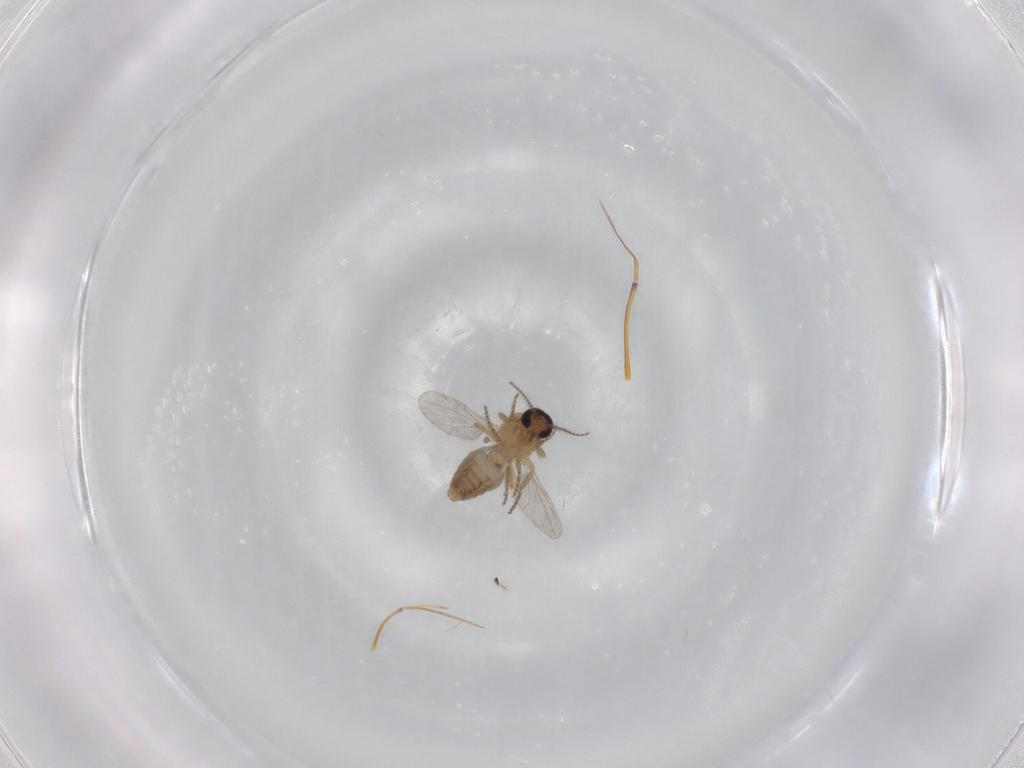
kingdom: Animalia
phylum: Arthropoda
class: Insecta
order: Diptera
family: Ceratopogonidae
